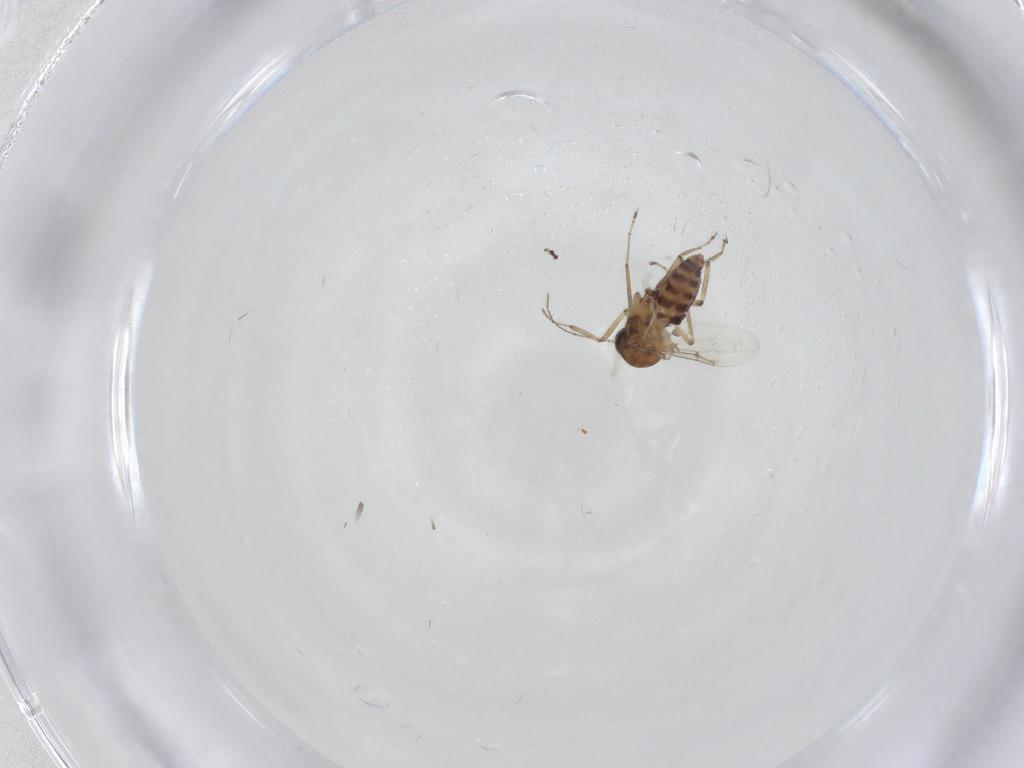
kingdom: Animalia
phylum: Arthropoda
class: Insecta
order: Diptera
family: Ceratopogonidae
